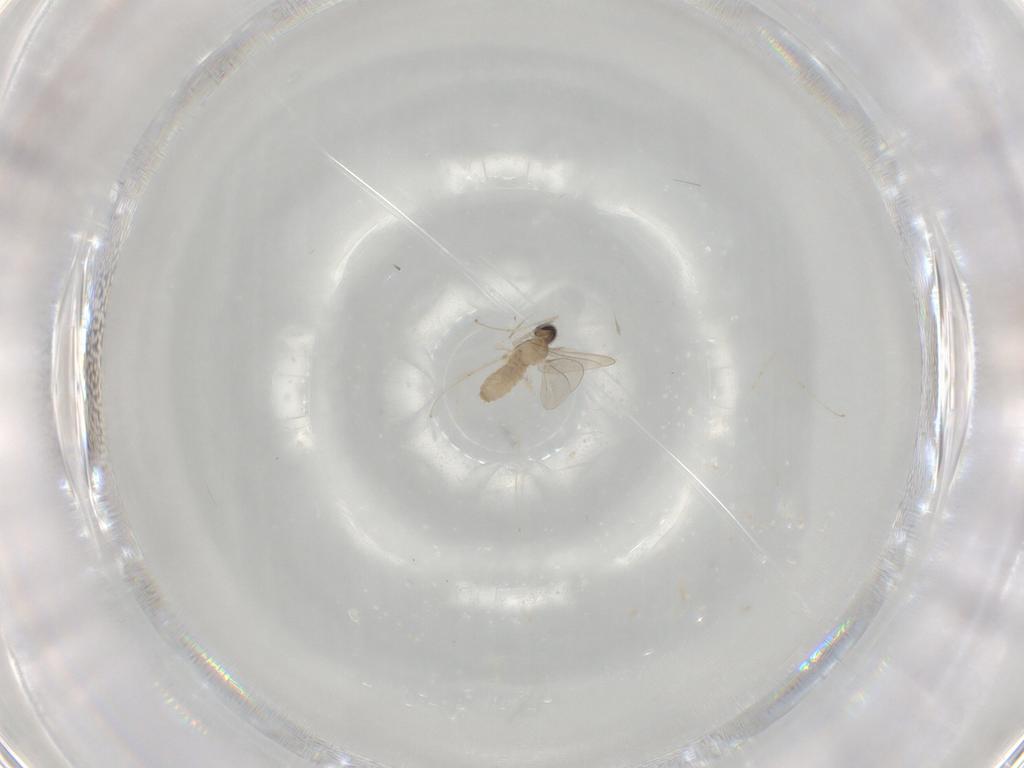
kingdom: Animalia
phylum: Arthropoda
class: Insecta
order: Diptera
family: Cecidomyiidae
